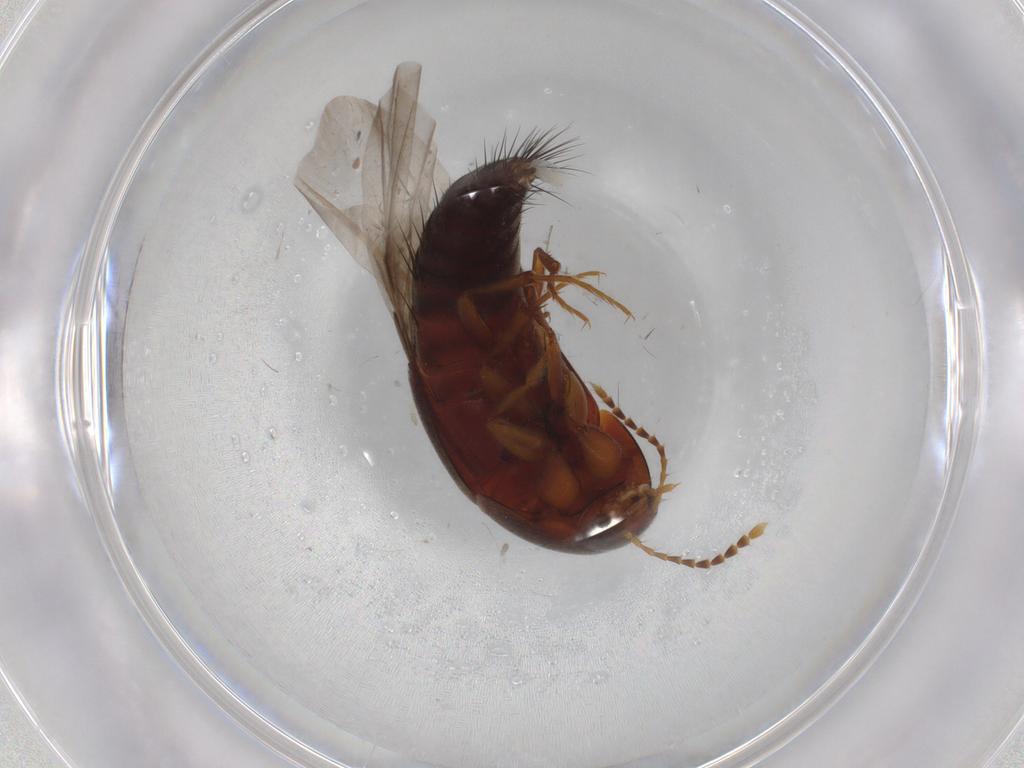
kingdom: Animalia
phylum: Arthropoda
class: Insecta
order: Coleoptera
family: Chrysomelidae
